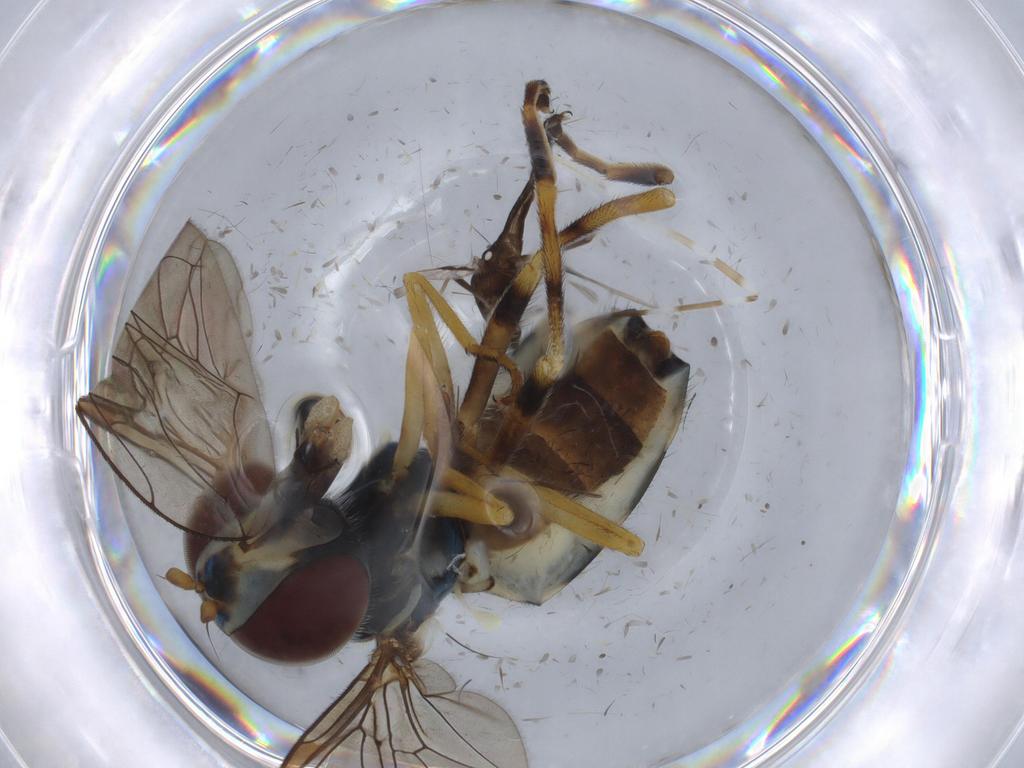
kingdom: Animalia
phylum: Arthropoda
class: Insecta
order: Diptera
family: Chironomidae
